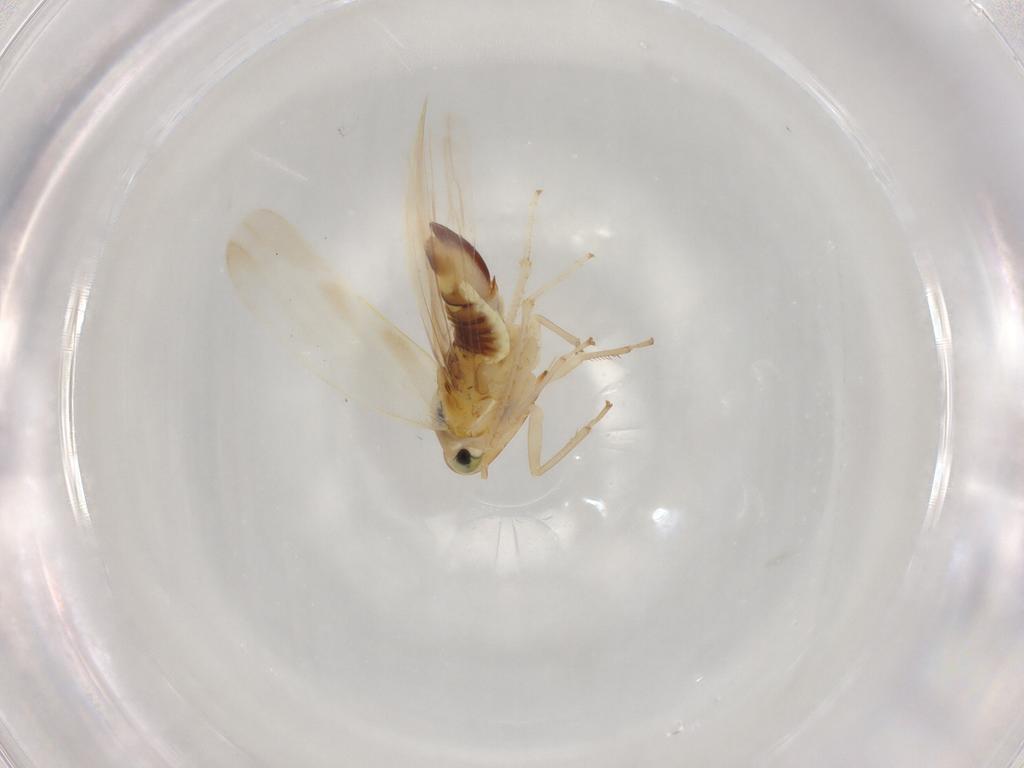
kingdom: Animalia
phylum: Arthropoda
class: Insecta
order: Hemiptera
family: Cicadellidae
